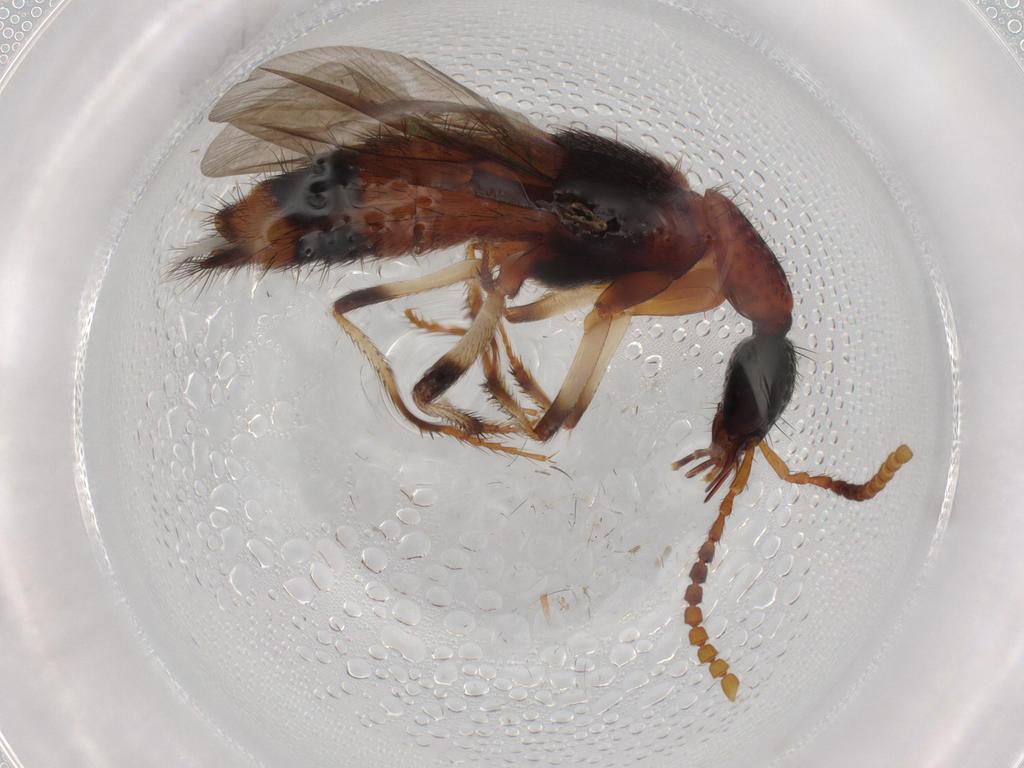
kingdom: Animalia
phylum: Arthropoda
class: Insecta
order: Coleoptera
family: Staphylinidae
